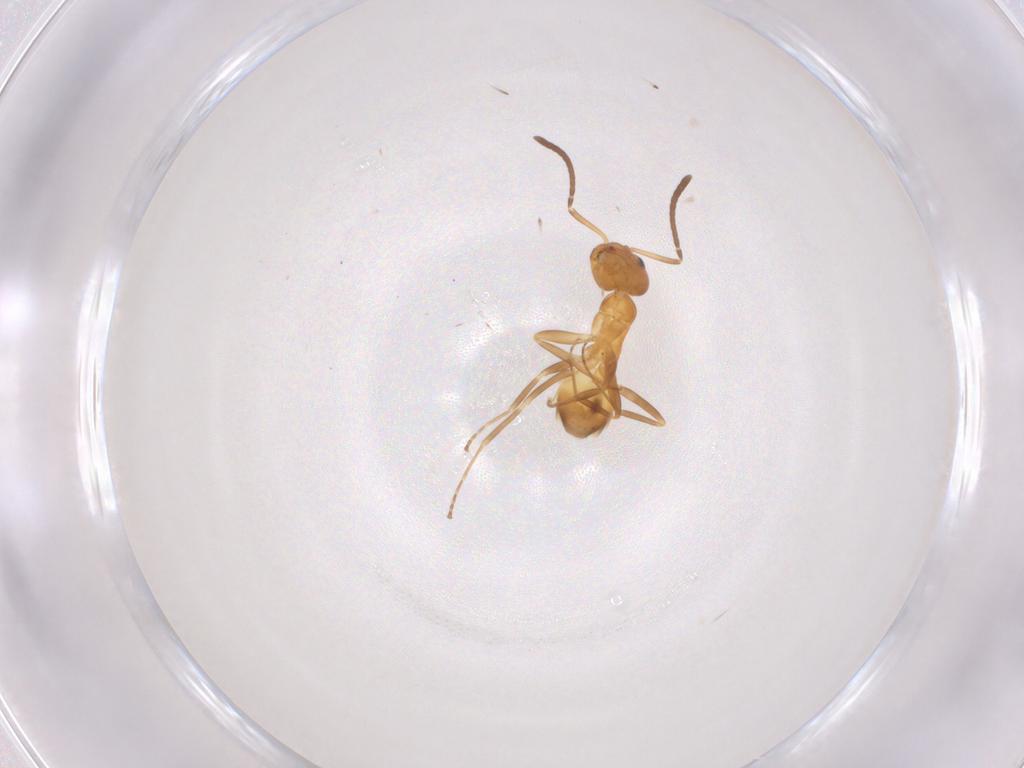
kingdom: Animalia
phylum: Arthropoda
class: Insecta
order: Hymenoptera
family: Formicidae
